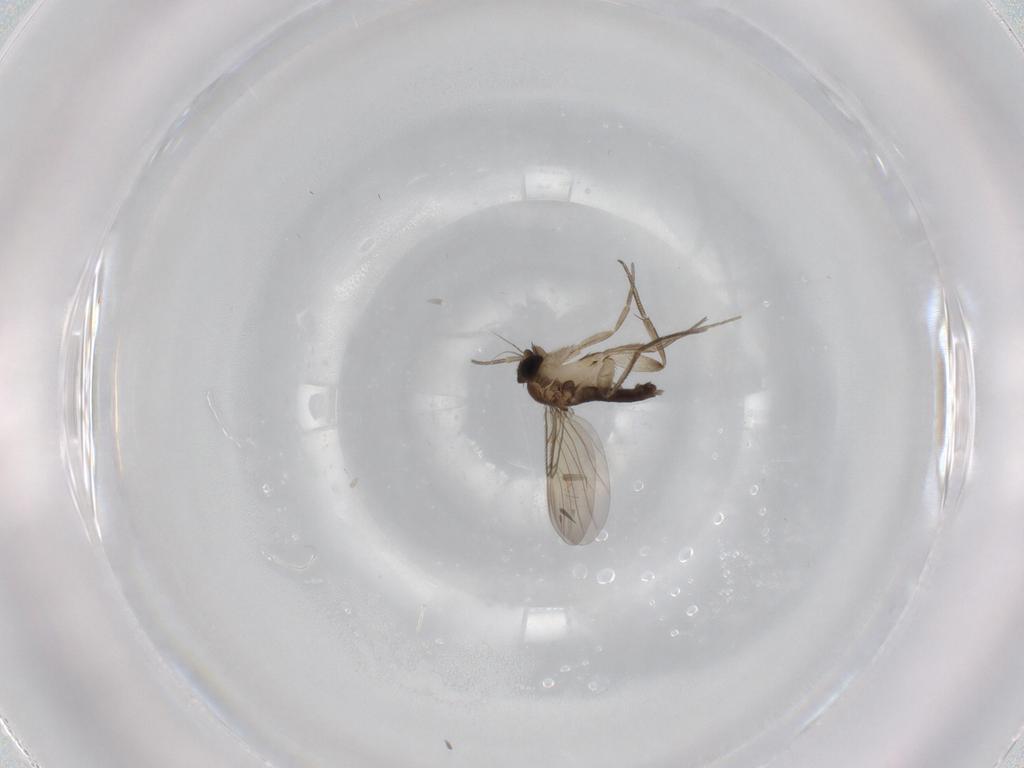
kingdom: Animalia
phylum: Arthropoda
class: Insecta
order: Diptera
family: Phoridae
